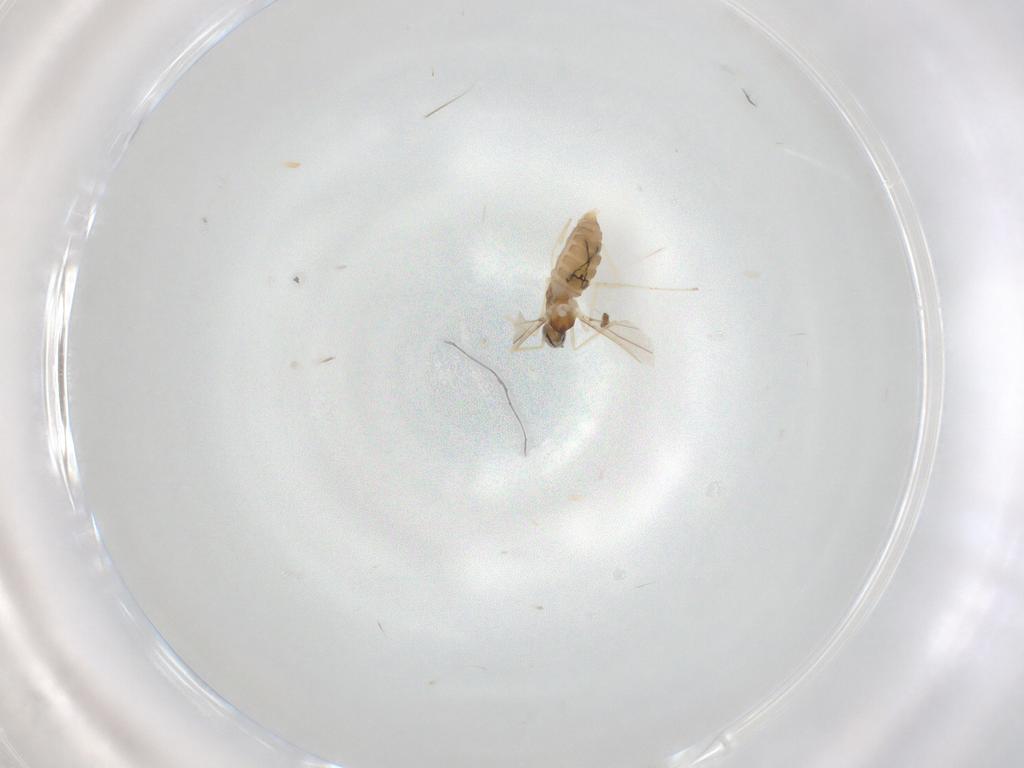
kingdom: Animalia
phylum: Arthropoda
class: Insecta
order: Diptera
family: Cecidomyiidae
